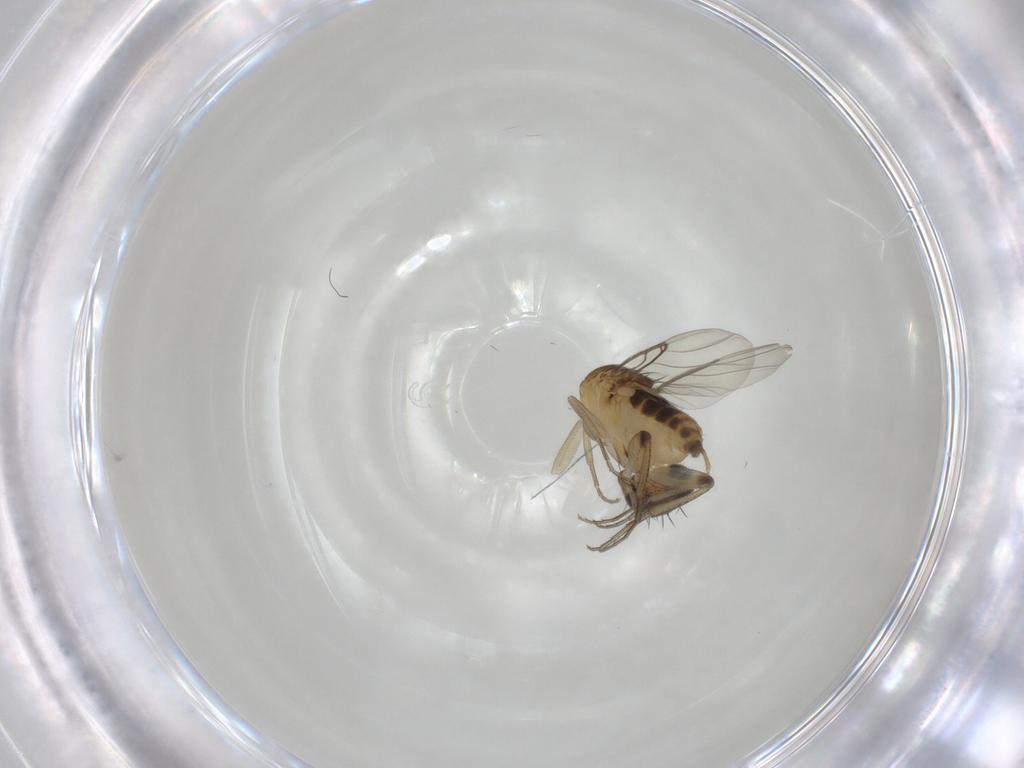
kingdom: Animalia
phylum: Arthropoda
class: Insecta
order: Diptera
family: Phoridae
